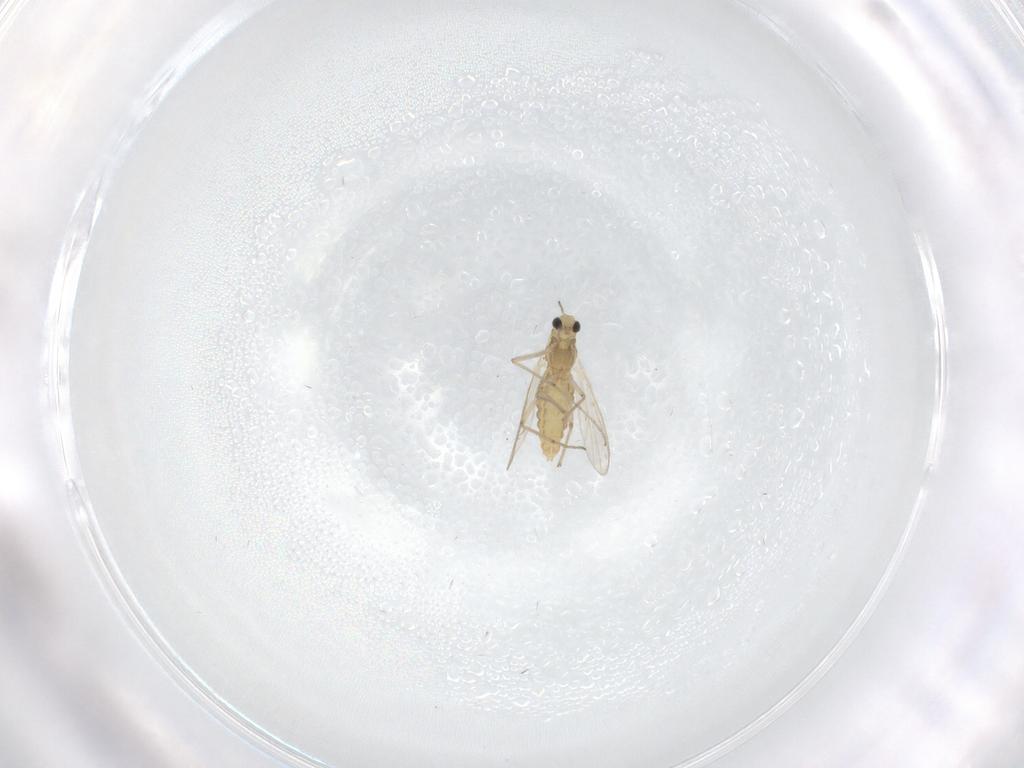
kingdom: Animalia
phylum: Arthropoda
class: Insecta
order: Diptera
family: Chironomidae
